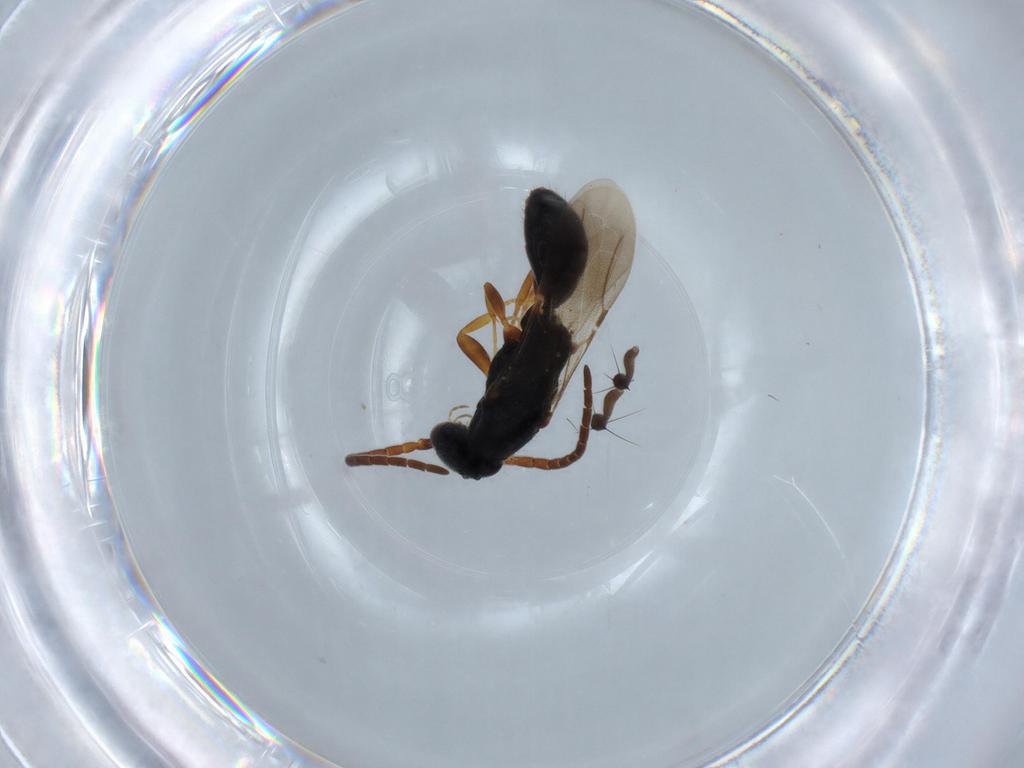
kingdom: Animalia
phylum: Arthropoda
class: Insecta
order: Hymenoptera
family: Bethylidae
